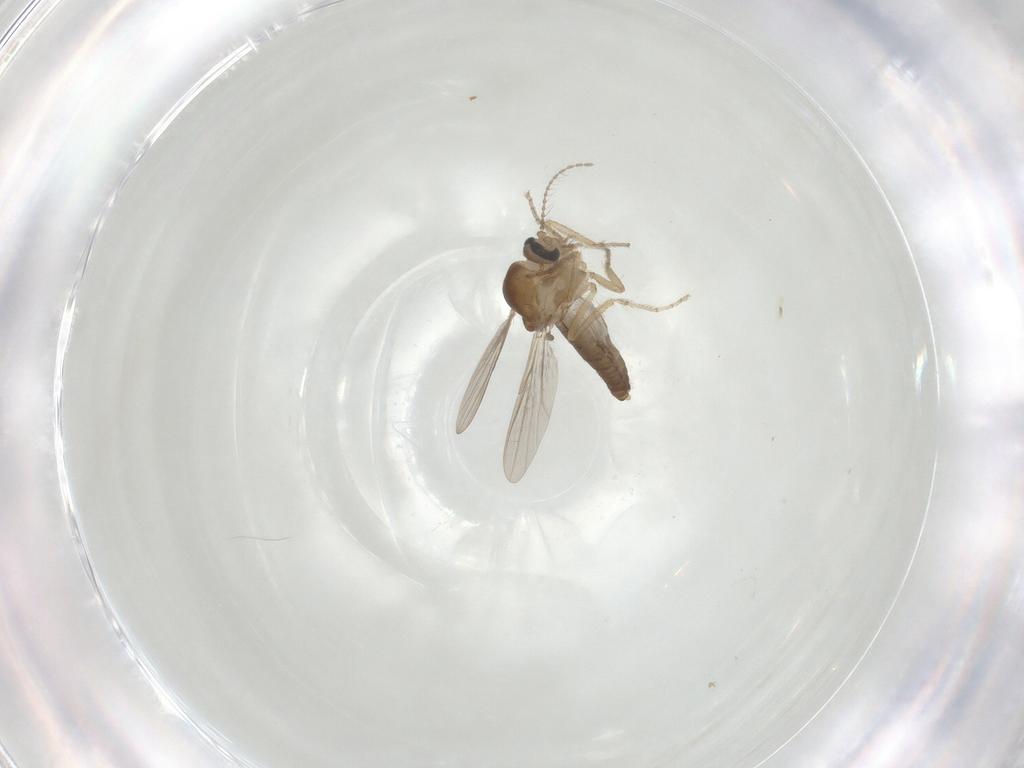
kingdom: Animalia
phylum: Arthropoda
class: Insecta
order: Diptera
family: Ceratopogonidae
